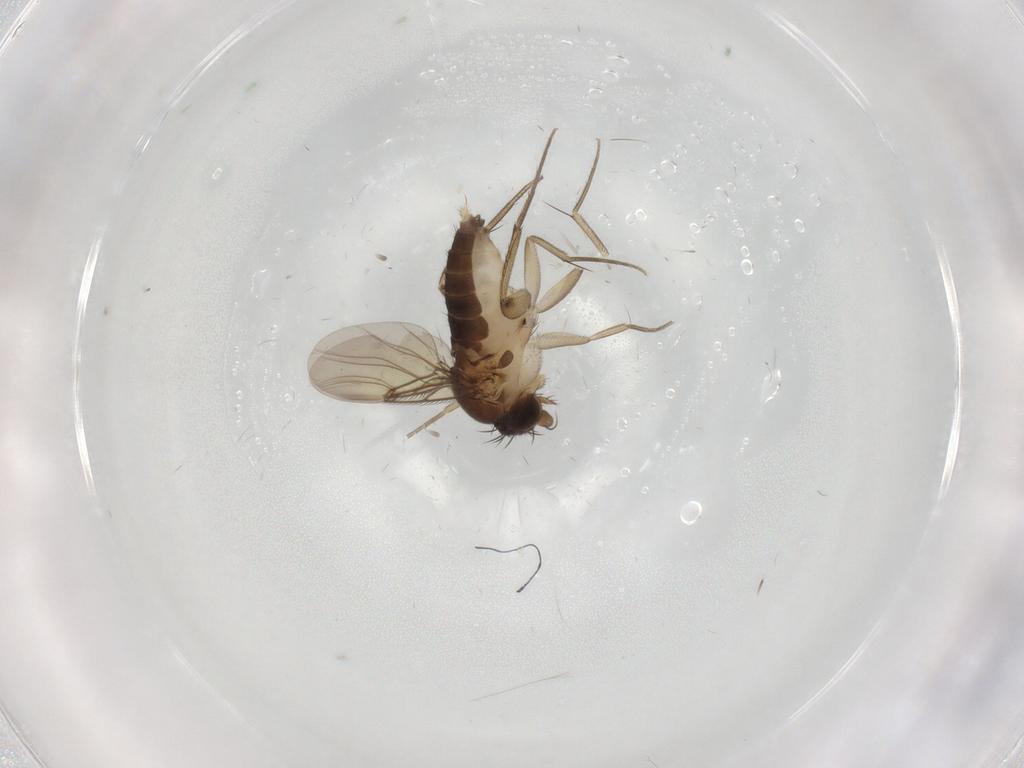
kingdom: Animalia
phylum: Arthropoda
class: Insecta
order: Diptera
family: Phoridae
